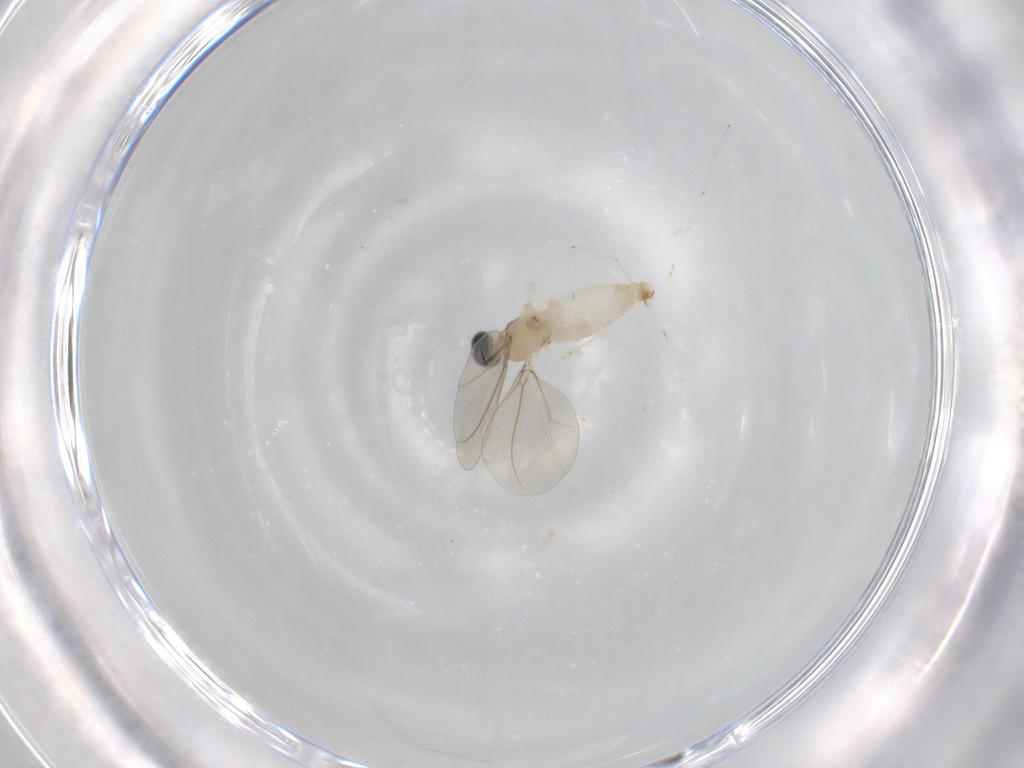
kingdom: Animalia
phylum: Arthropoda
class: Insecta
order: Diptera
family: Cecidomyiidae
